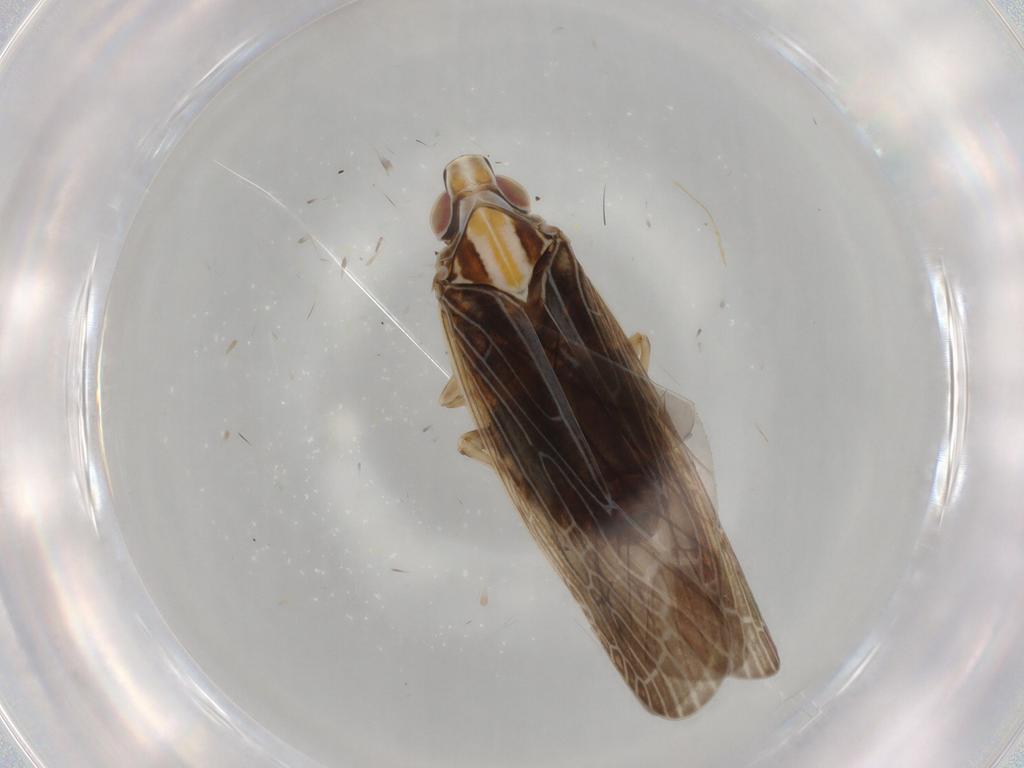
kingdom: Animalia
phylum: Arthropoda
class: Insecta
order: Hemiptera
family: Achilidae
